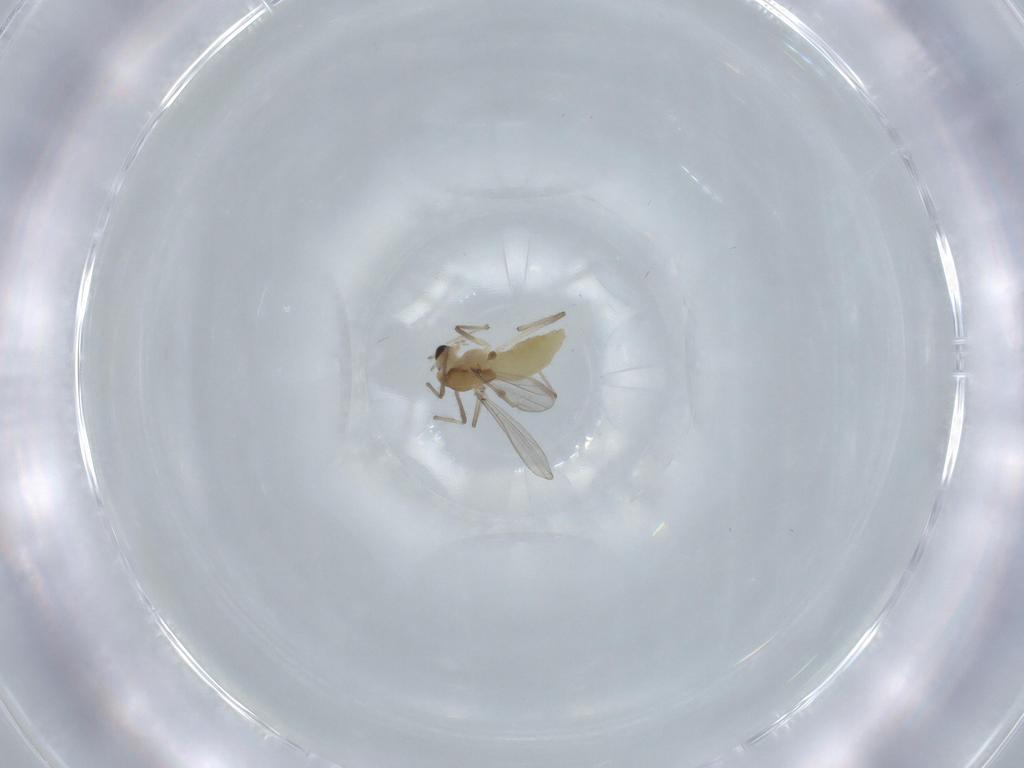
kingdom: Animalia
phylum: Arthropoda
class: Insecta
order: Diptera
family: Chironomidae
